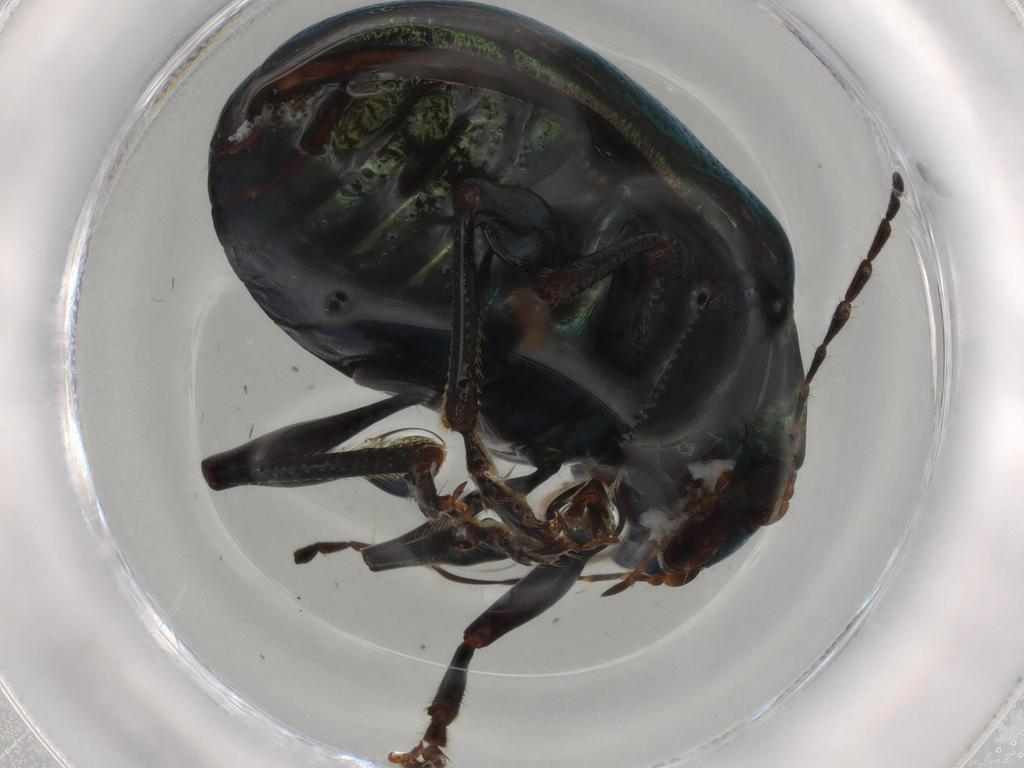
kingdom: Animalia
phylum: Arthropoda
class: Insecta
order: Coleoptera
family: Chrysomelidae
